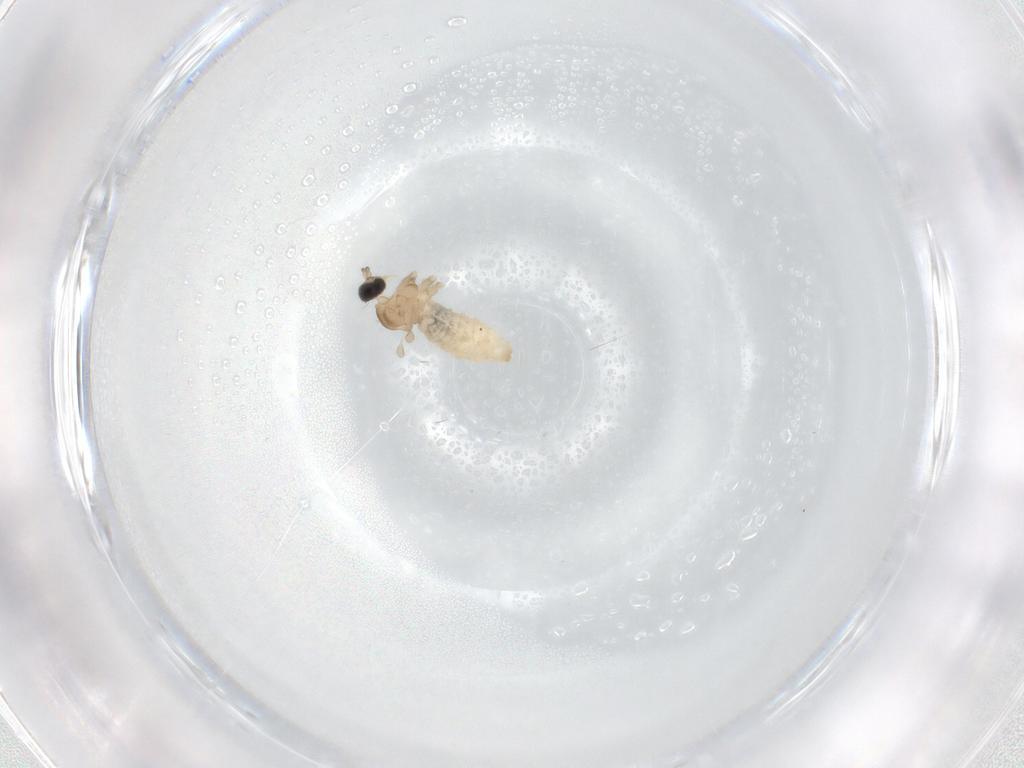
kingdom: Animalia
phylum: Arthropoda
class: Insecta
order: Diptera
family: Cecidomyiidae
